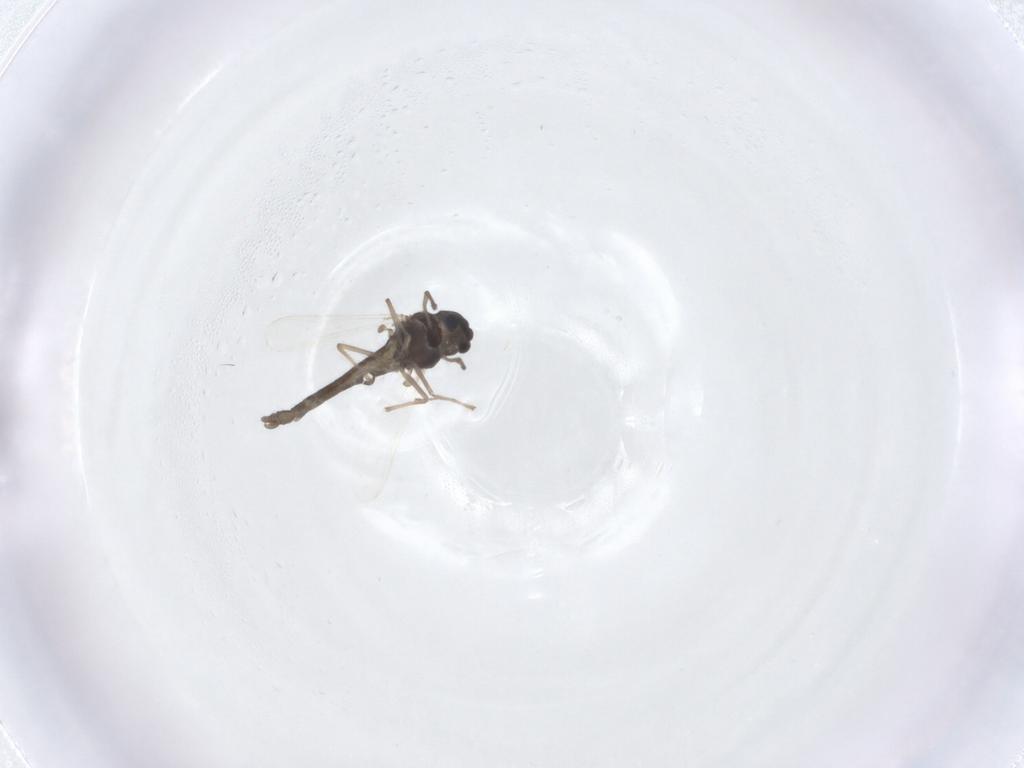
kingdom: Animalia
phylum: Arthropoda
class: Insecta
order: Diptera
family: Chironomidae
